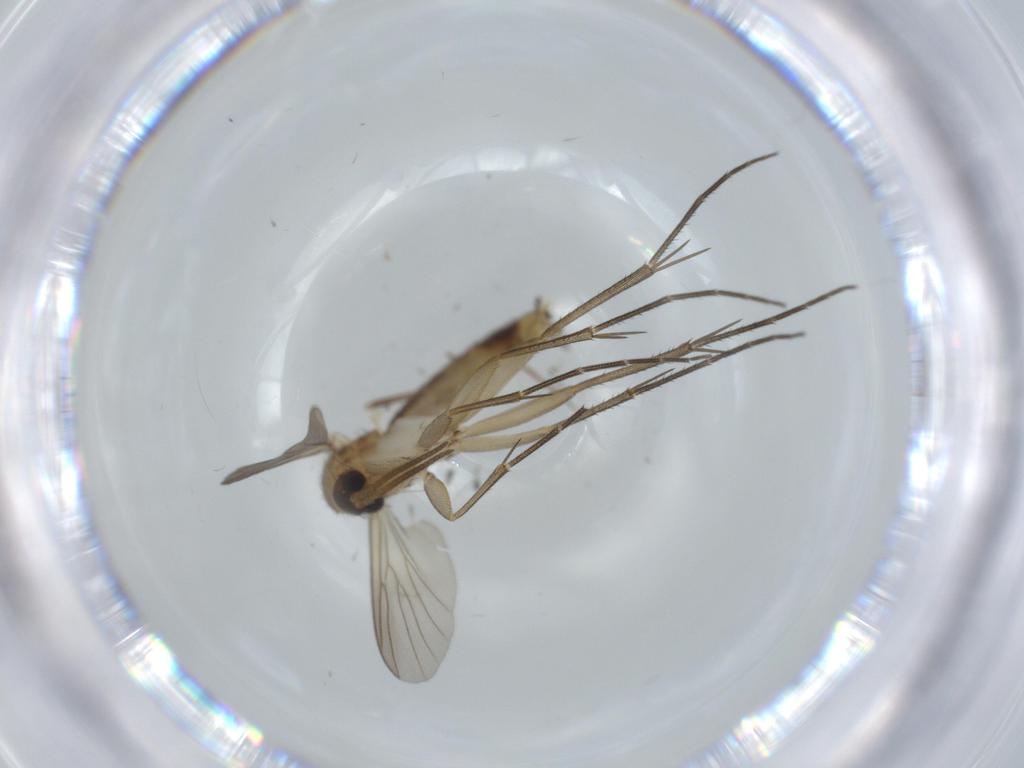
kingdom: Animalia
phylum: Arthropoda
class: Insecta
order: Diptera
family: Mycetophilidae
